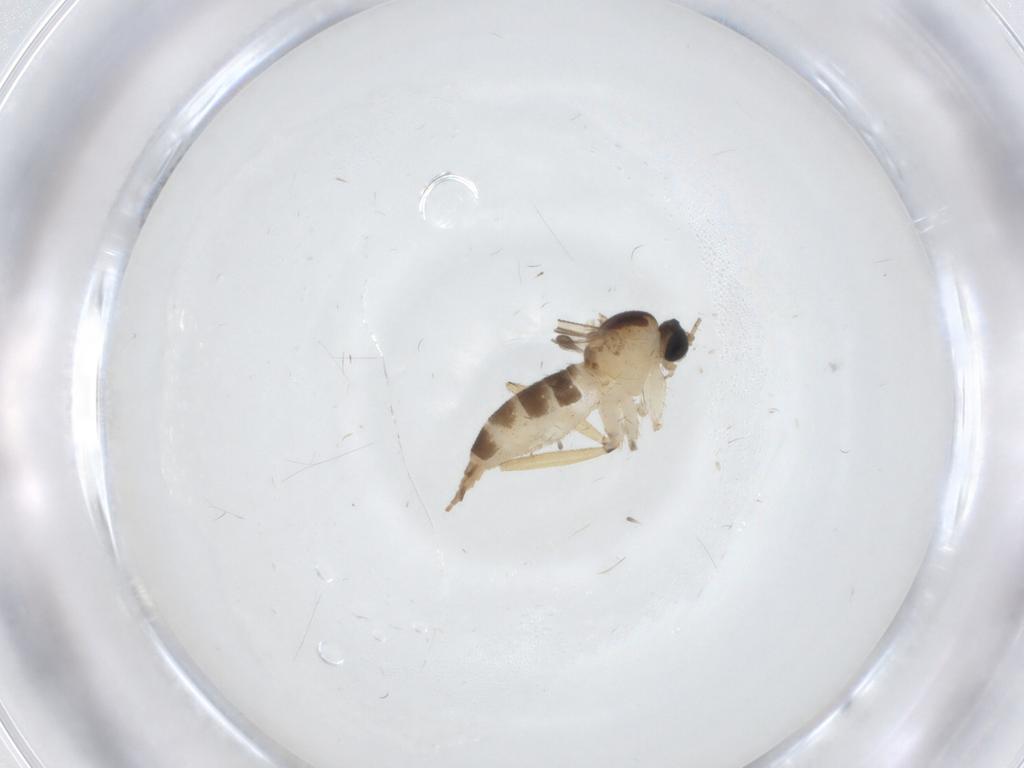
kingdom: Animalia
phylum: Arthropoda
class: Insecta
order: Diptera
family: Sciaridae
